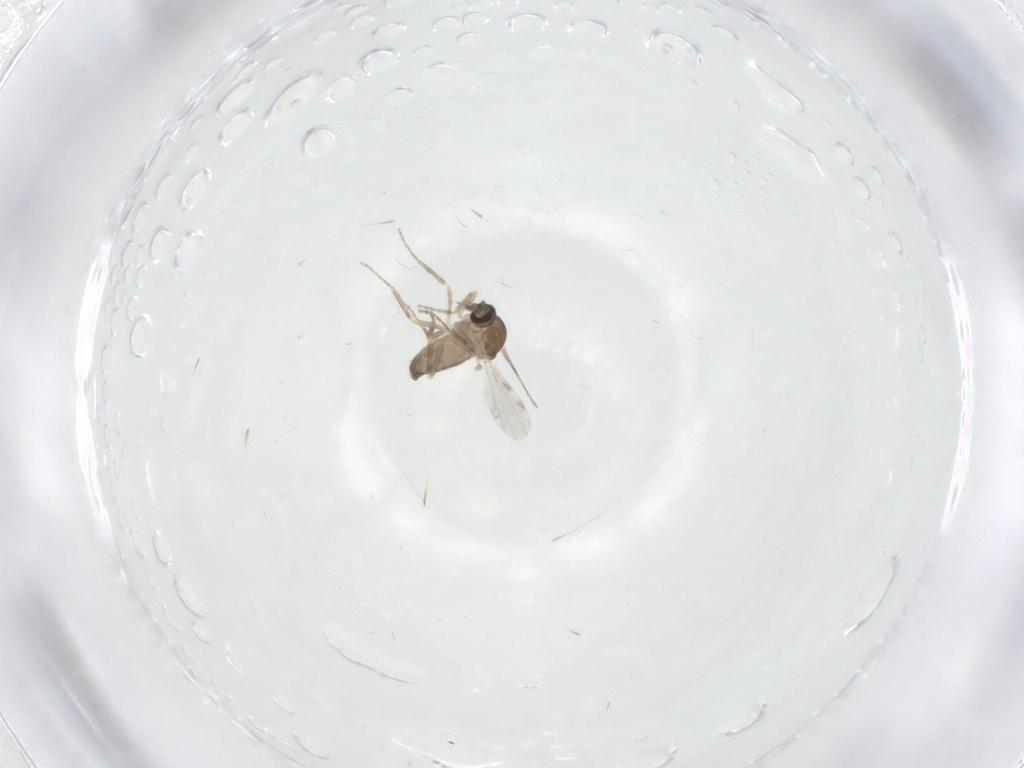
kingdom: Animalia
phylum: Arthropoda
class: Insecta
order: Diptera
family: Ceratopogonidae
